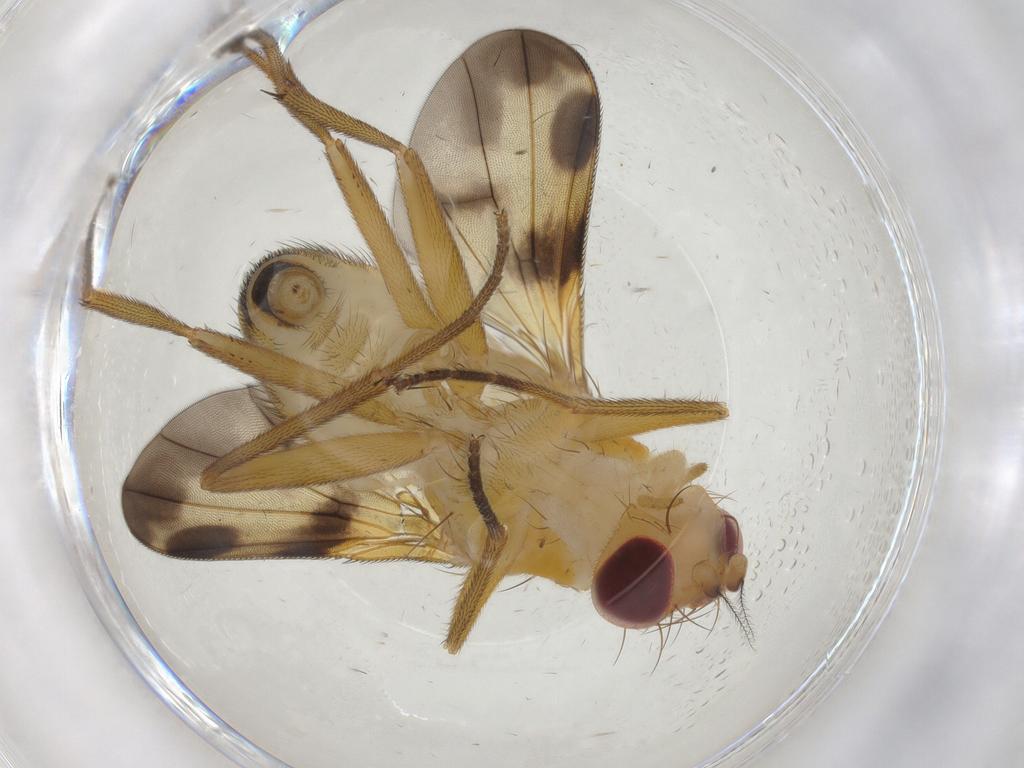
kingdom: Animalia
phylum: Arthropoda
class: Insecta
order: Diptera
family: Clusiidae
